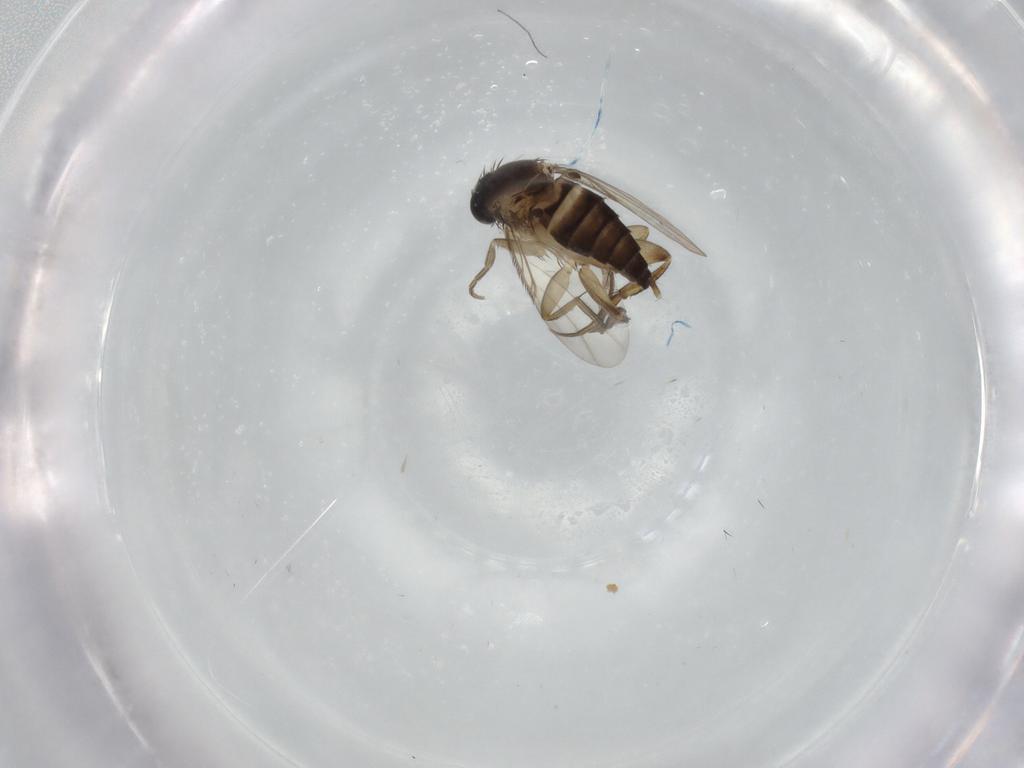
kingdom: Animalia
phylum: Arthropoda
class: Insecta
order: Diptera
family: Phoridae
